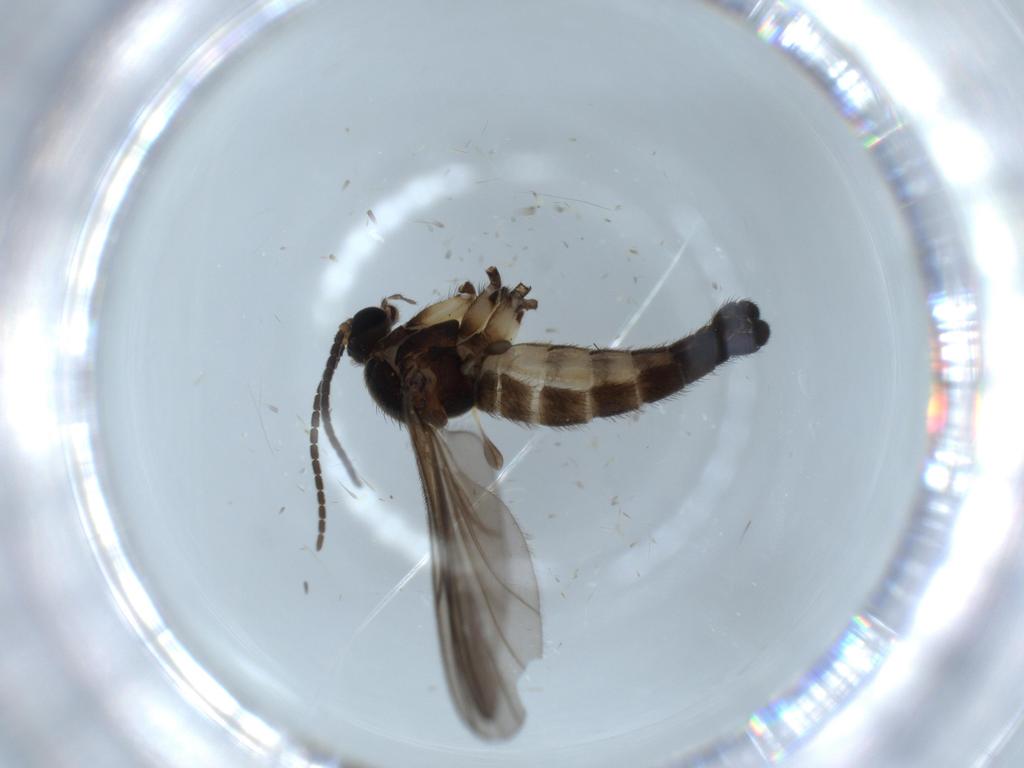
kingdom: Animalia
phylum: Arthropoda
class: Insecta
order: Diptera
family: Sciaridae
